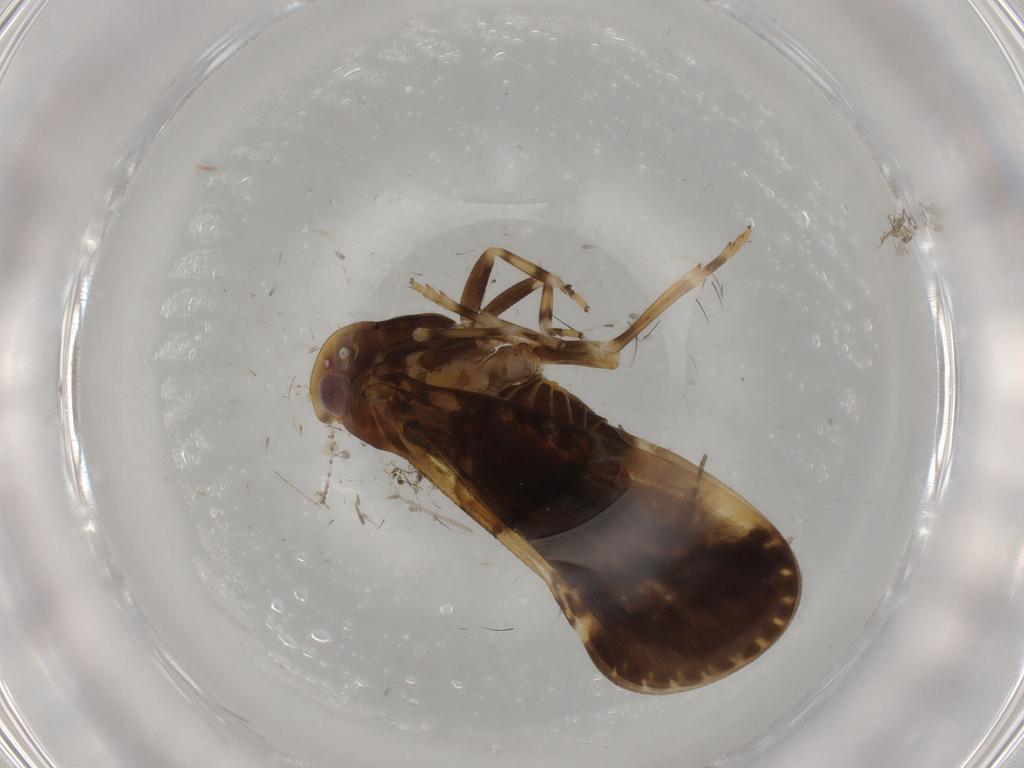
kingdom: Animalia
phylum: Arthropoda
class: Insecta
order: Hemiptera
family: Cixiidae
